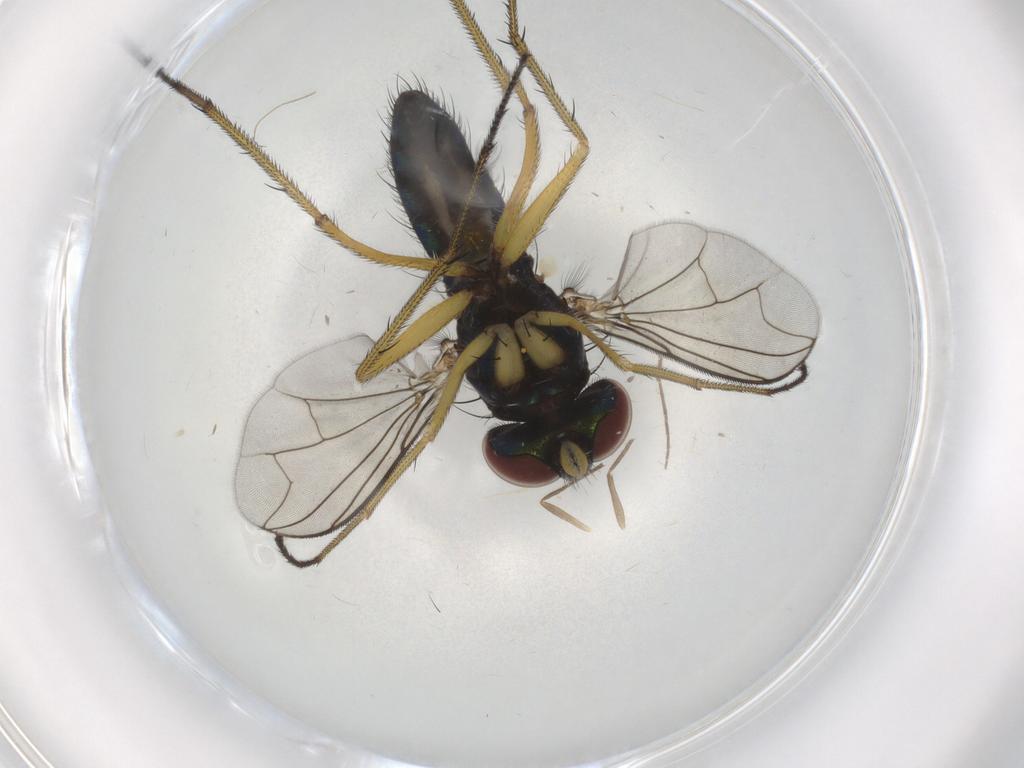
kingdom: Animalia
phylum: Arthropoda
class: Insecta
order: Diptera
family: Dolichopodidae
